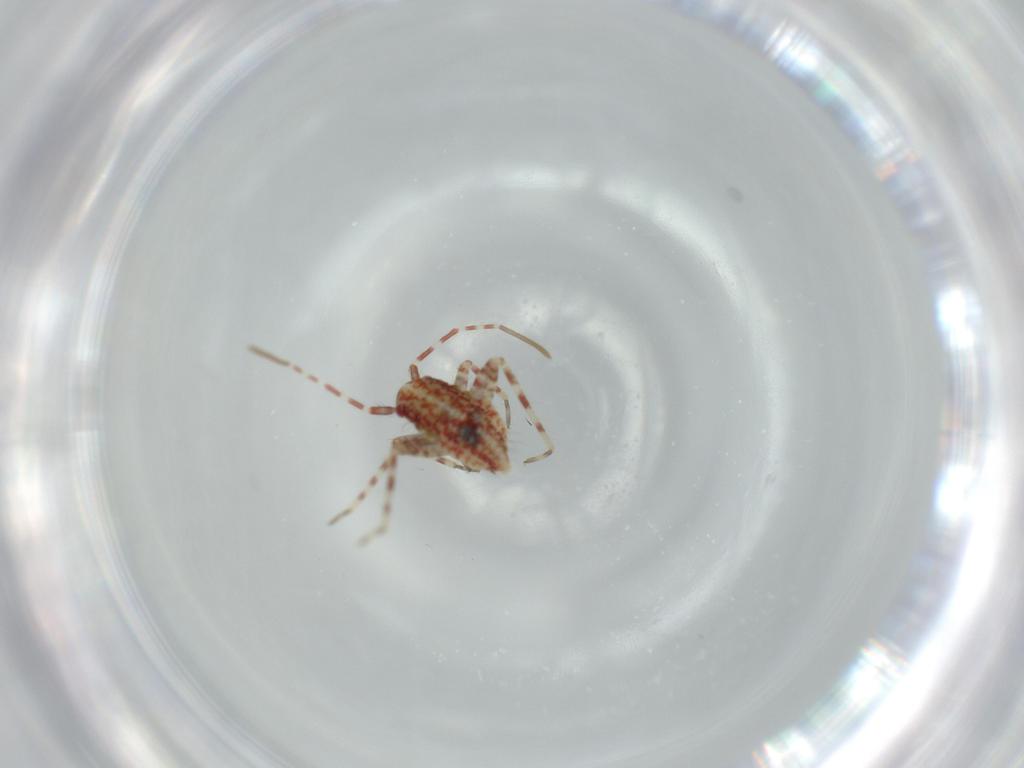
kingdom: Animalia
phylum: Arthropoda
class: Insecta
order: Hemiptera
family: Miridae
